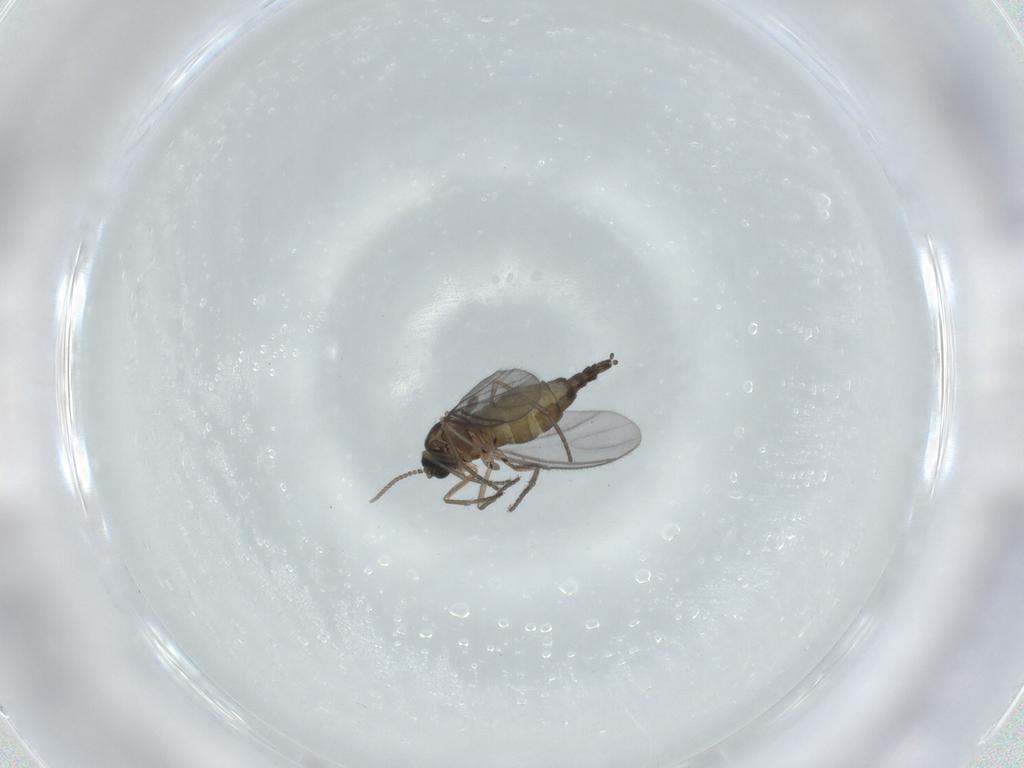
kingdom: Animalia
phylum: Arthropoda
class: Insecta
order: Diptera
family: Sciaridae
